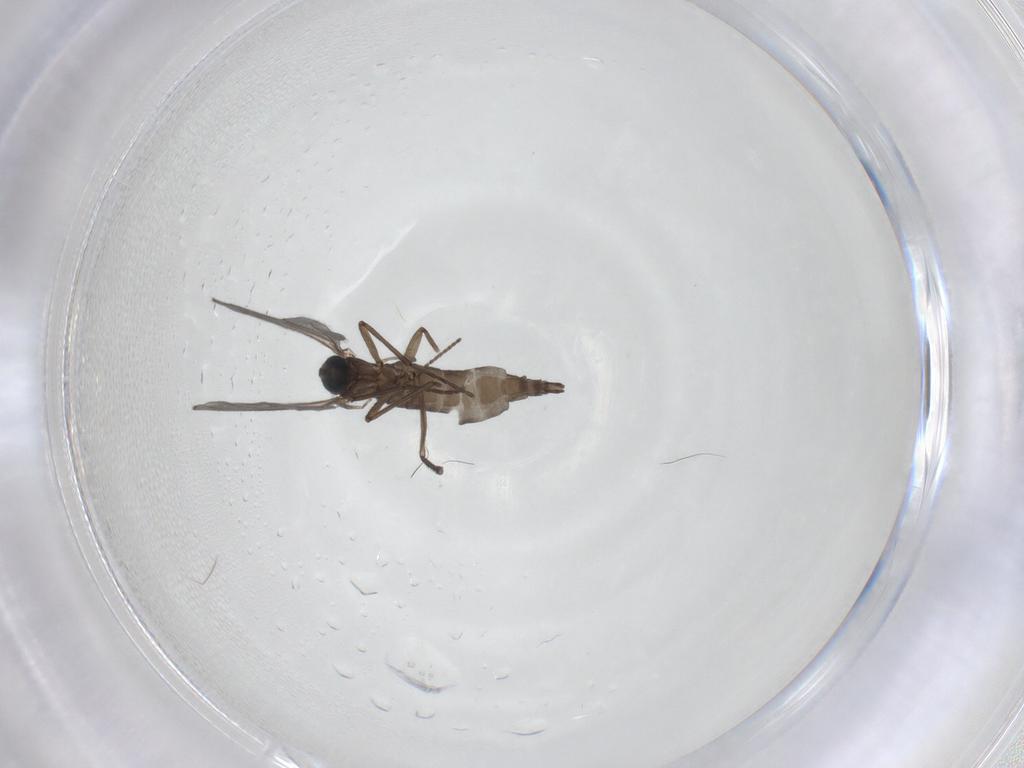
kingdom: Animalia
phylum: Arthropoda
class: Insecta
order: Diptera
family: Sciaridae
